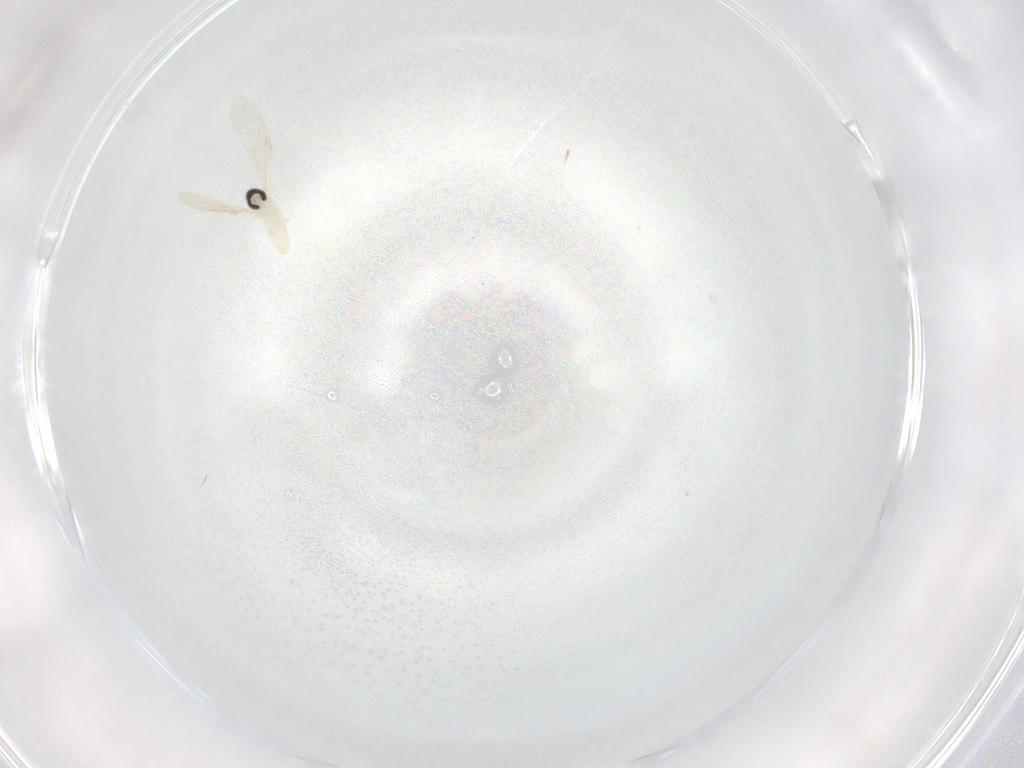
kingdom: Animalia
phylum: Arthropoda
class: Insecta
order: Diptera
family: Cecidomyiidae
